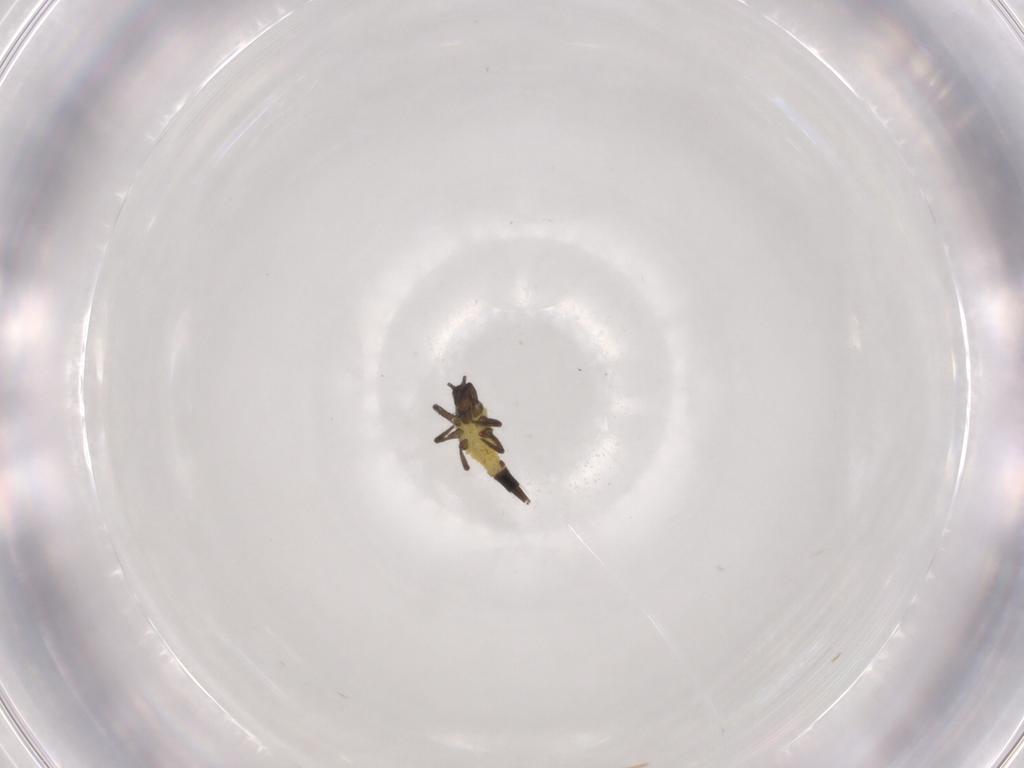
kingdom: Animalia
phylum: Arthropoda
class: Insecta
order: Thysanoptera
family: Phlaeothripidae
